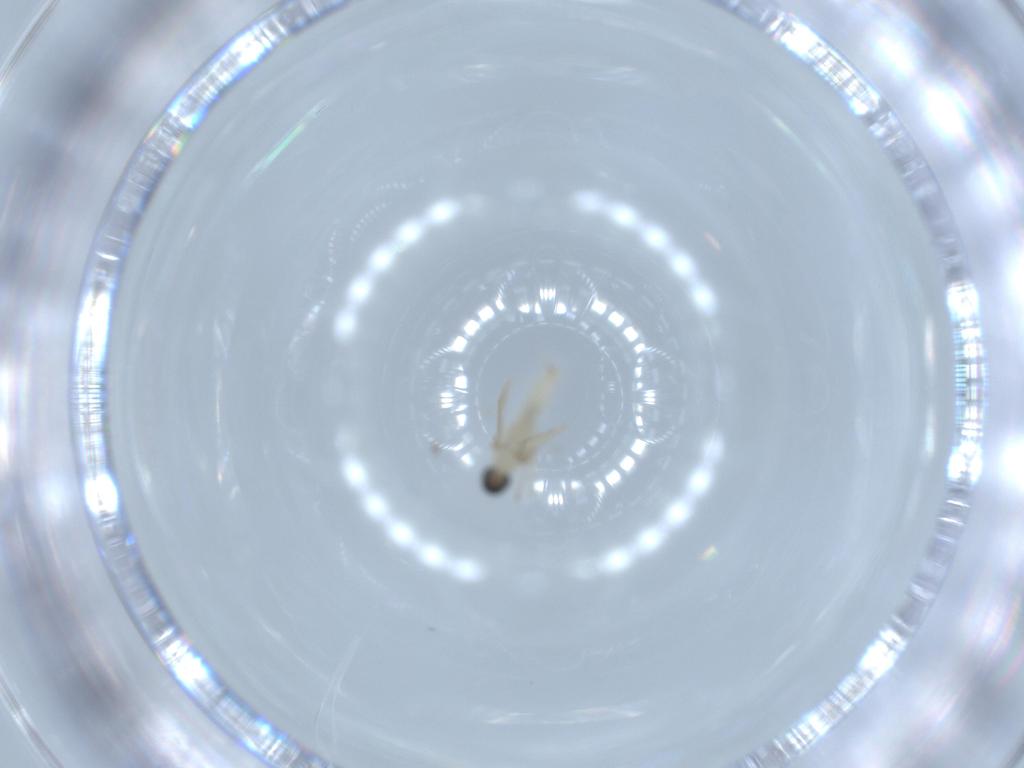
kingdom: Animalia
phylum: Arthropoda
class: Insecta
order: Diptera
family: Cecidomyiidae
